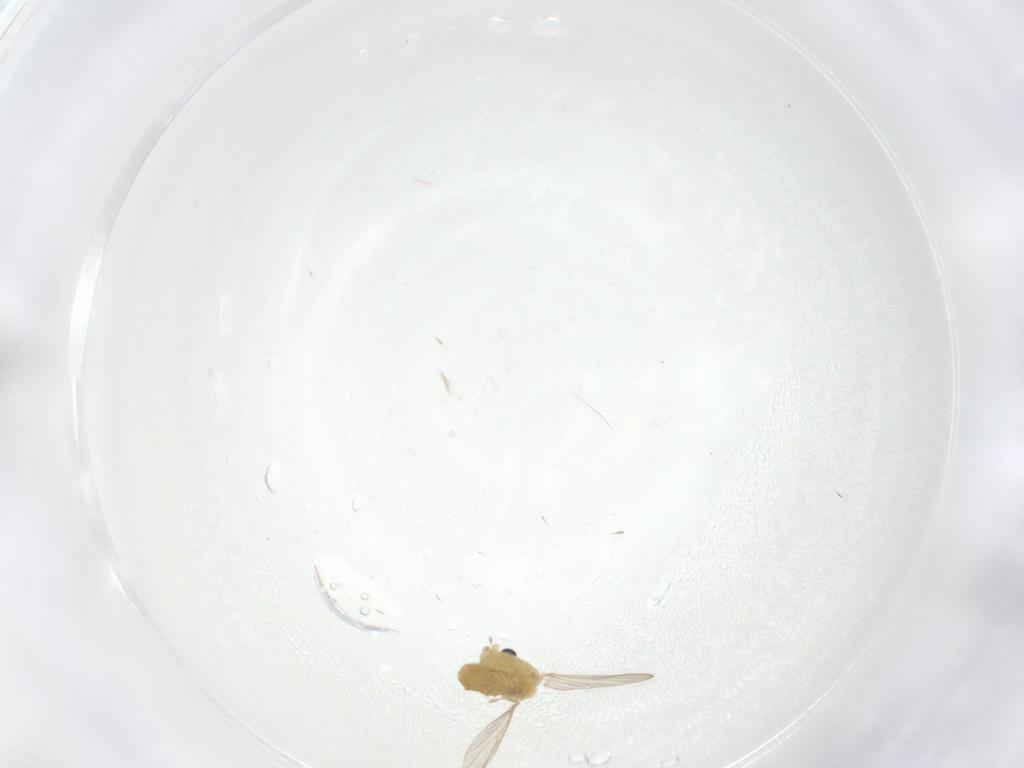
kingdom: Animalia
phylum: Arthropoda
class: Insecta
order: Diptera
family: Chironomidae
